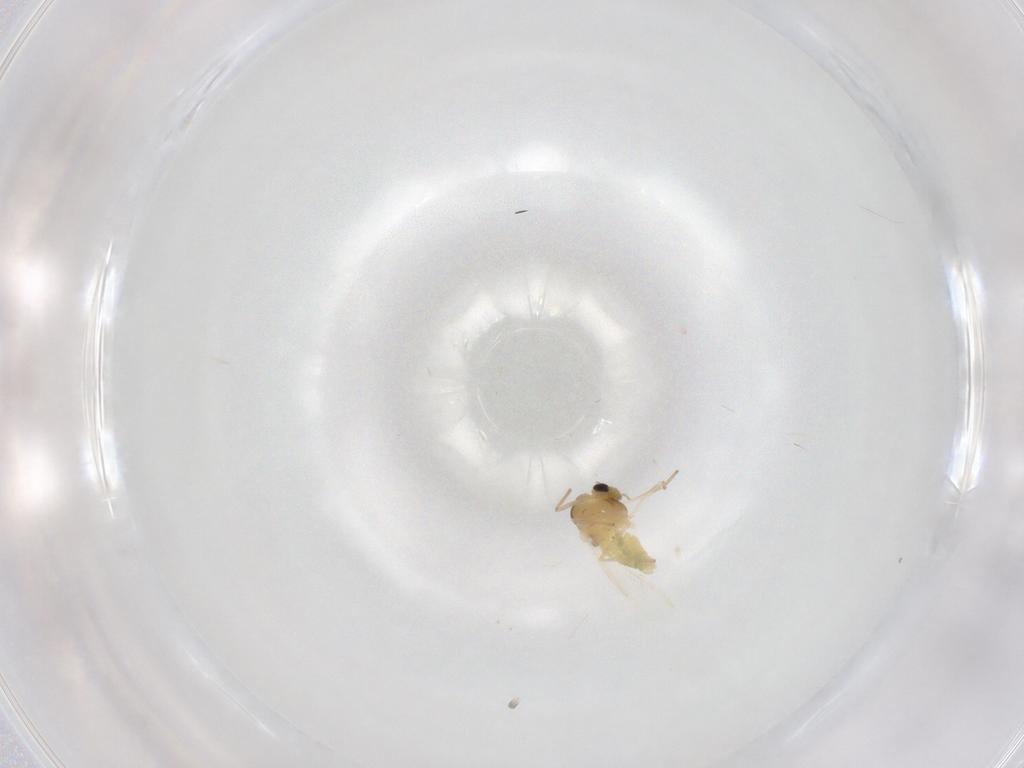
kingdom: Animalia
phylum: Arthropoda
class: Insecta
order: Diptera
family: Chironomidae
